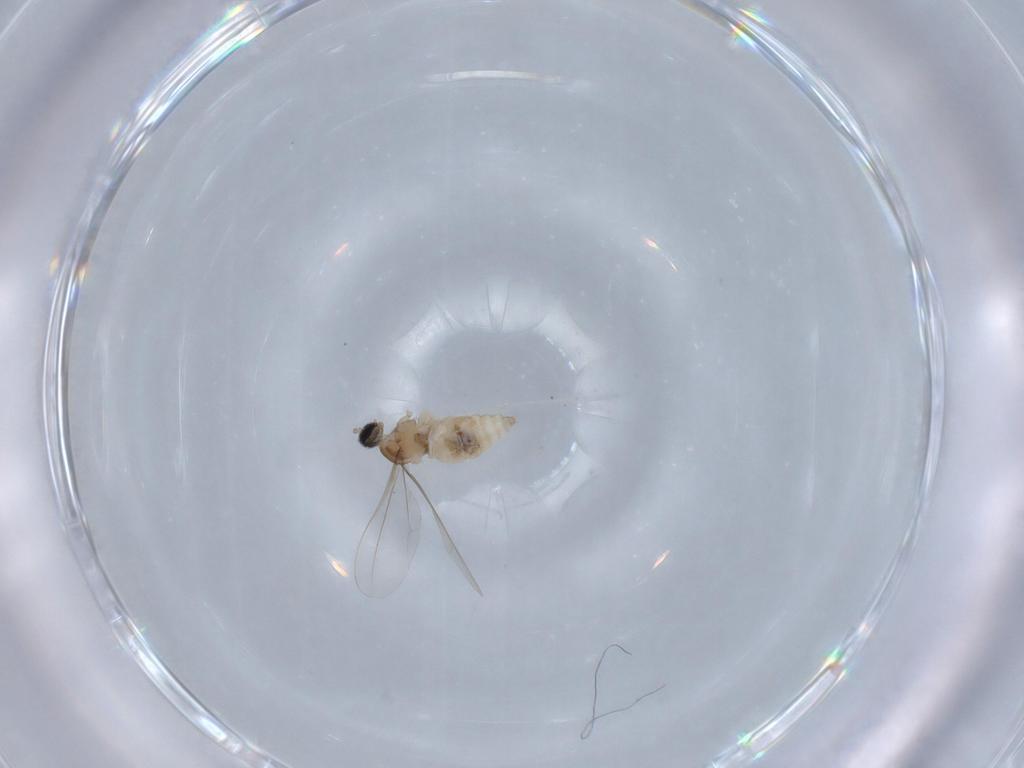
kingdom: Animalia
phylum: Arthropoda
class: Insecta
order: Diptera
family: Cecidomyiidae
